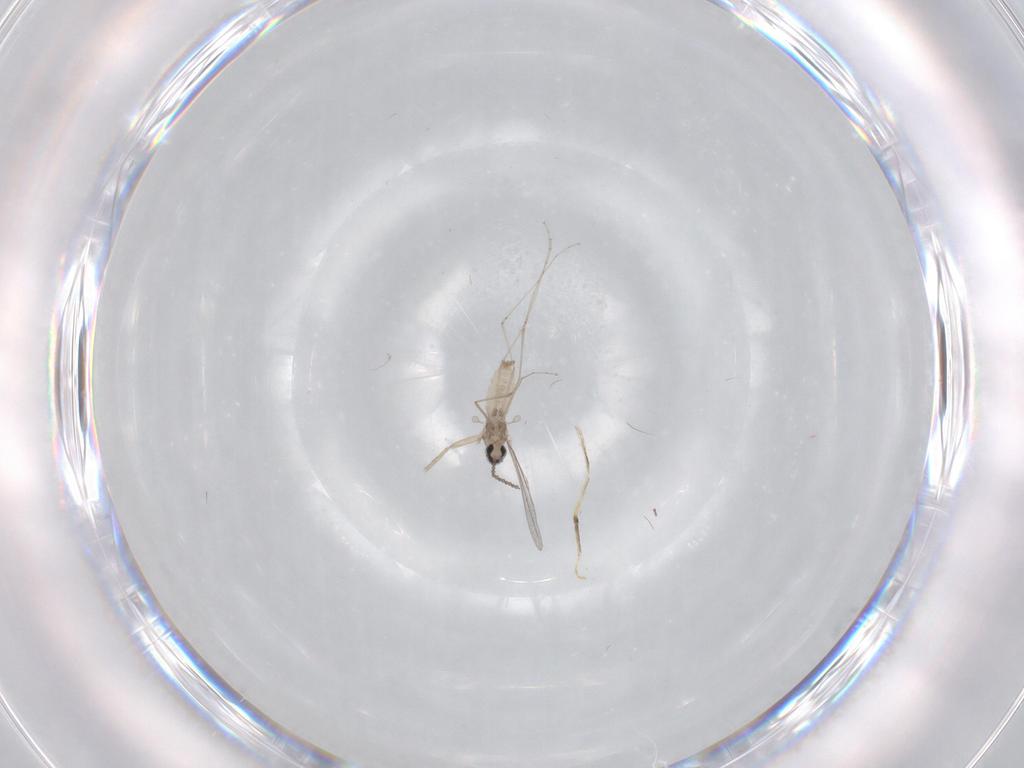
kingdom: Animalia
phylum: Arthropoda
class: Insecta
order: Diptera
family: Cecidomyiidae
